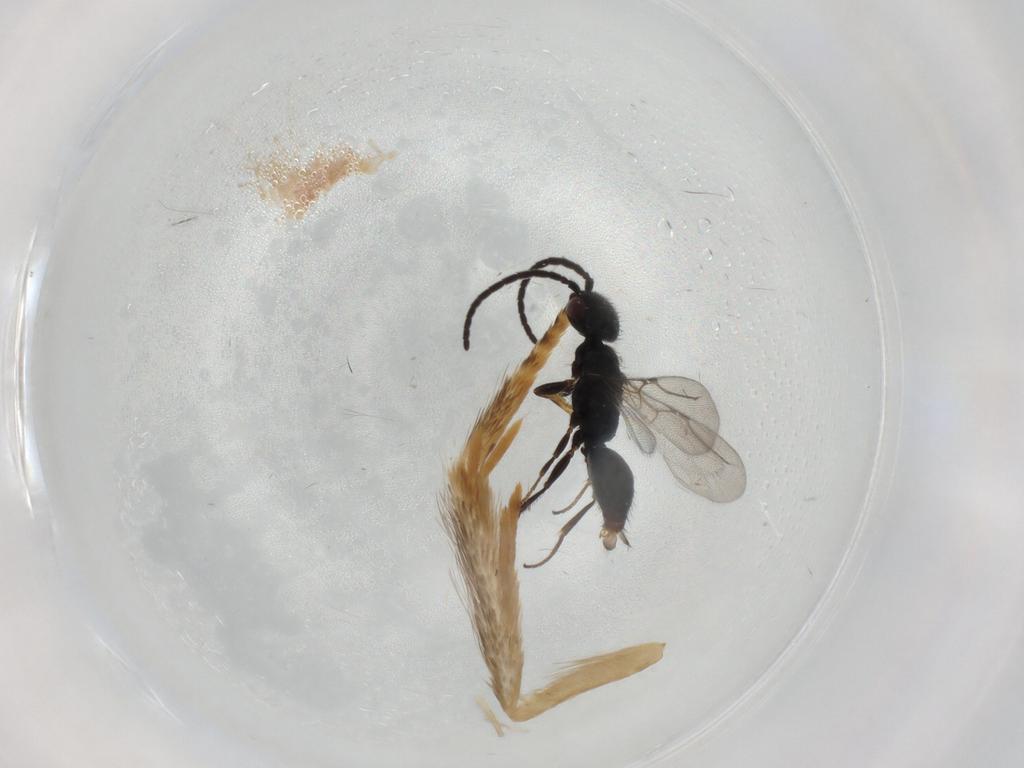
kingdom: Animalia
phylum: Arthropoda
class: Insecta
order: Hymenoptera
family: Bethylidae
